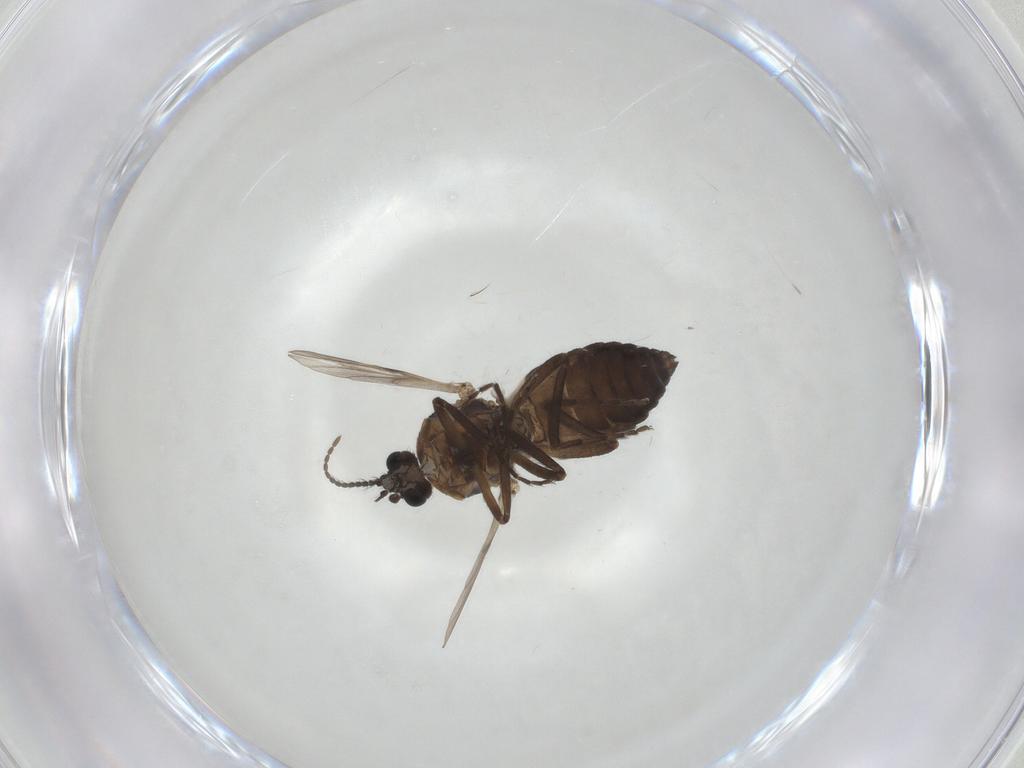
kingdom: Animalia
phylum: Arthropoda
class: Insecta
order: Diptera
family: Ceratopogonidae
